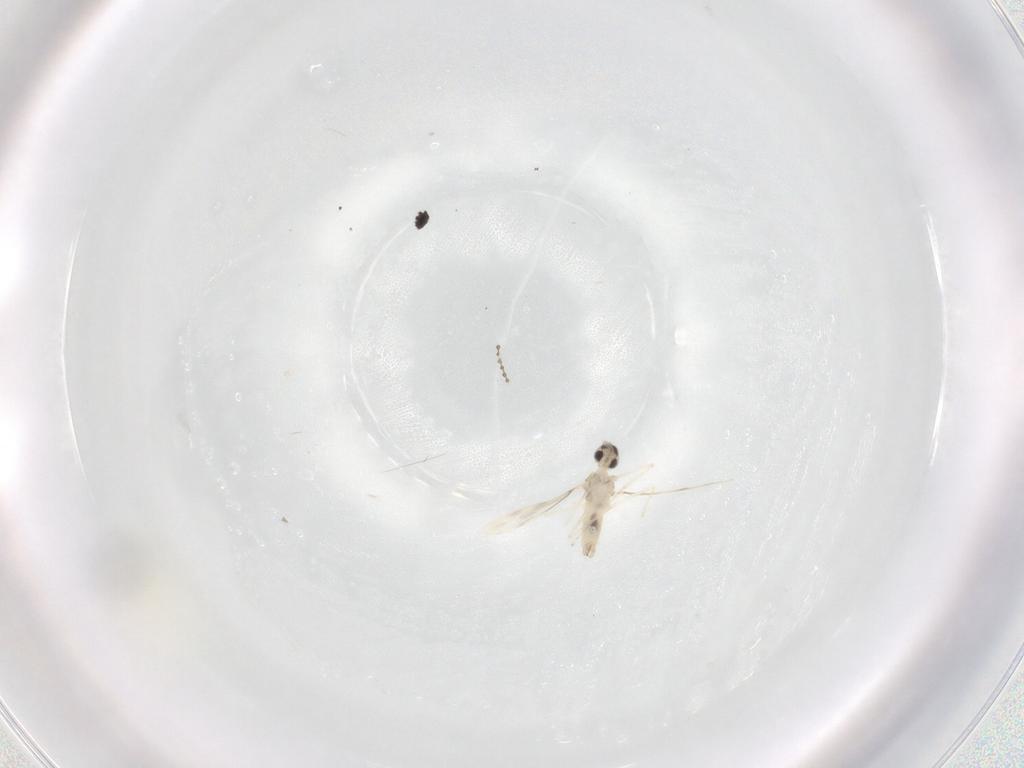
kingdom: Animalia
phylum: Arthropoda
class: Insecta
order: Diptera
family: Cecidomyiidae
